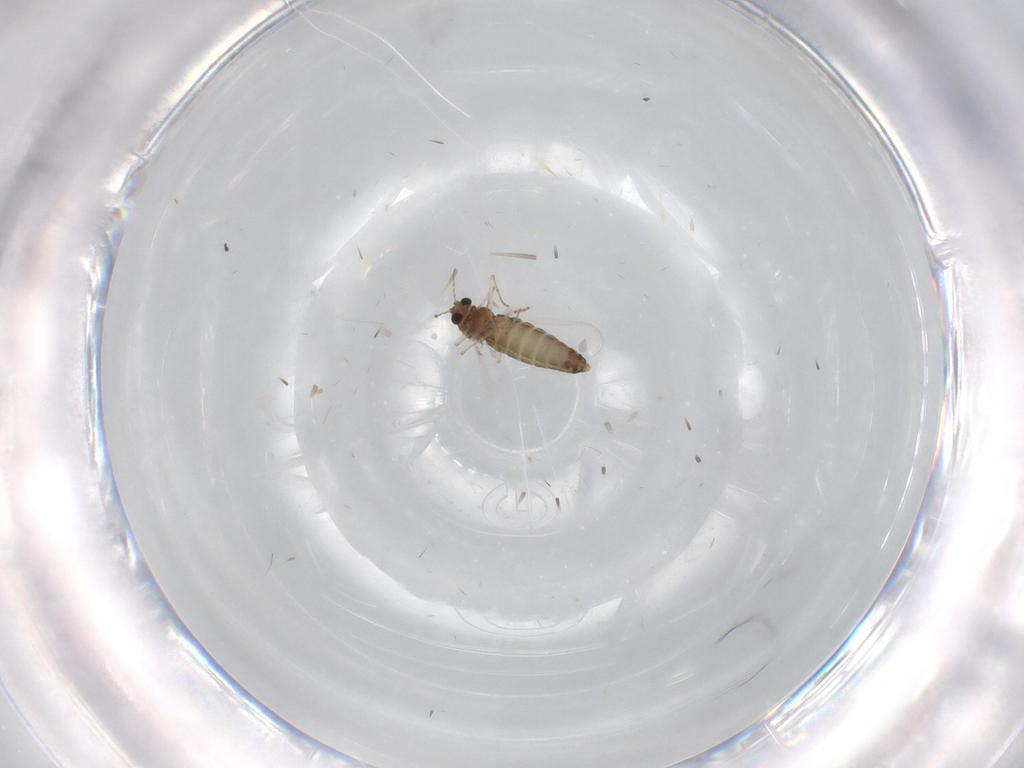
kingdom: Animalia
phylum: Arthropoda
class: Insecta
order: Diptera
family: Chironomidae
